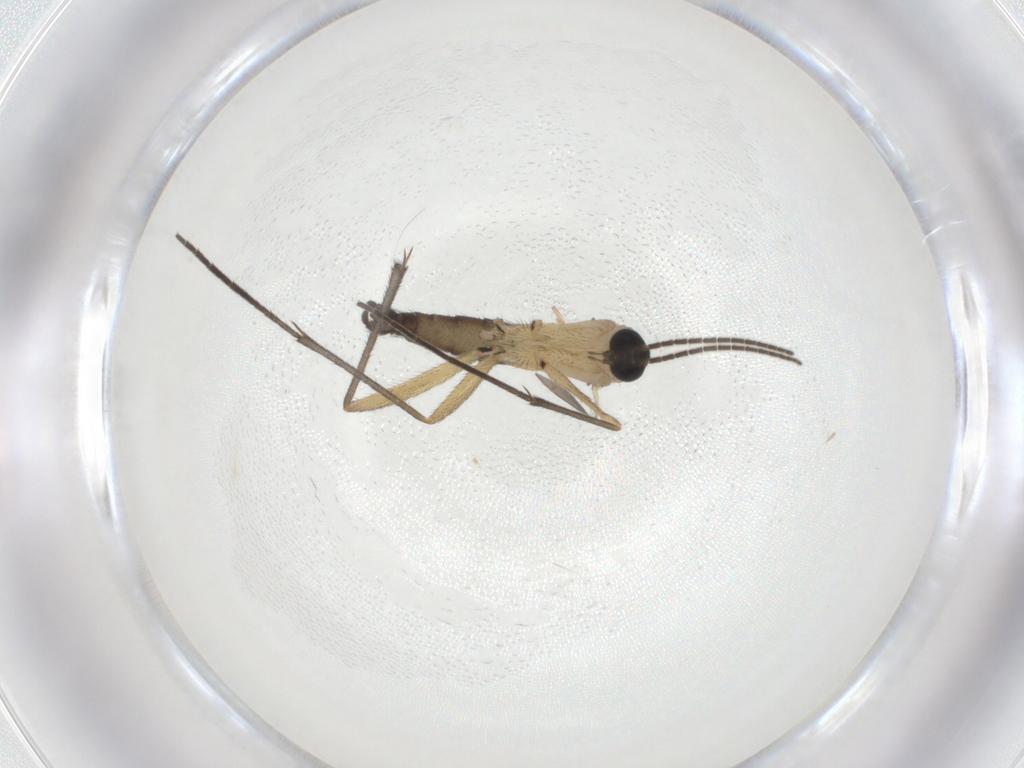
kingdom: Animalia
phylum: Arthropoda
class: Insecta
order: Diptera
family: Sciaridae
